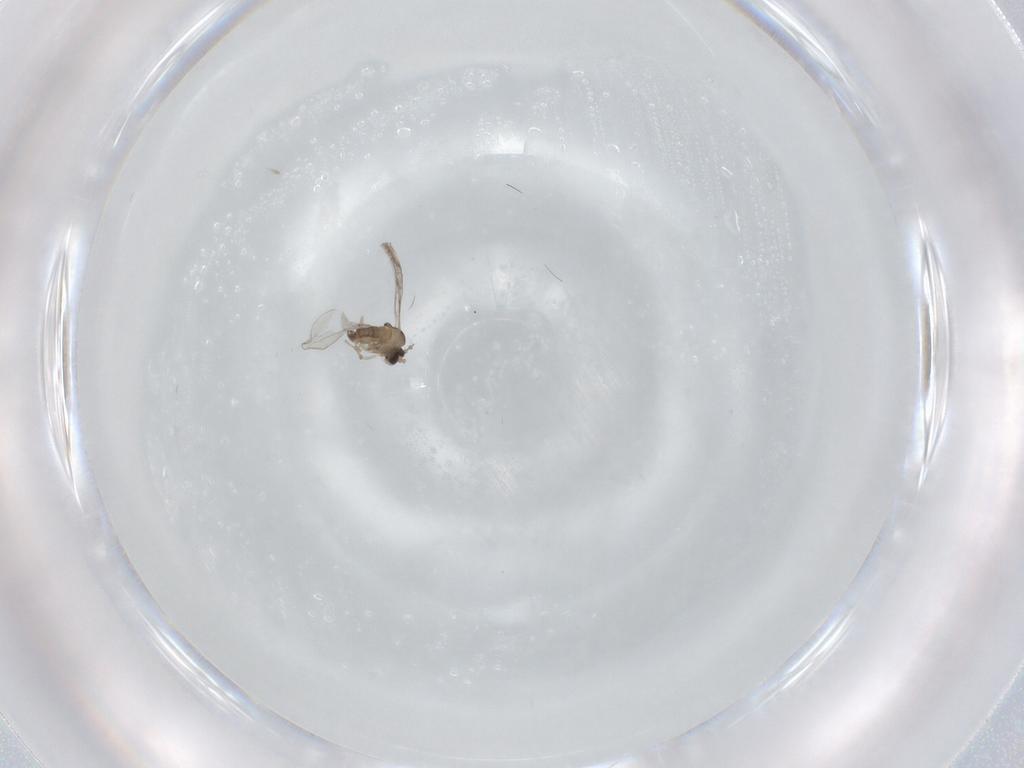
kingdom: Animalia
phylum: Arthropoda
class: Insecta
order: Diptera
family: Cecidomyiidae
